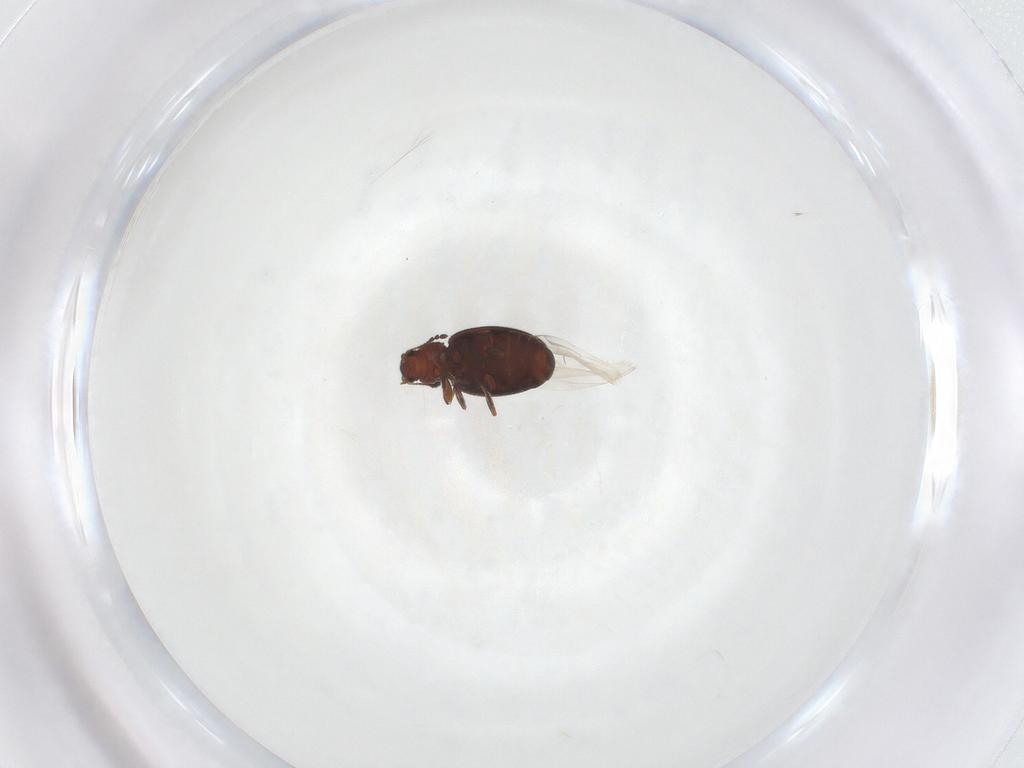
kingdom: Animalia
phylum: Arthropoda
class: Insecta
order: Coleoptera
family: Latridiidae
